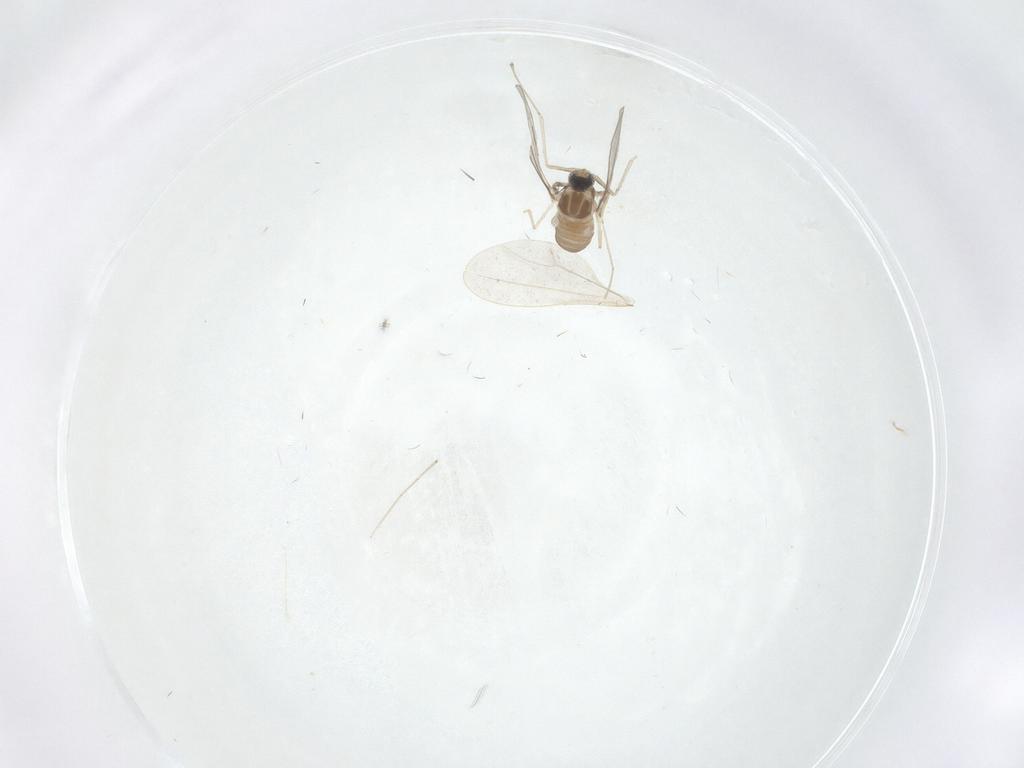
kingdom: Animalia
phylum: Arthropoda
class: Insecta
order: Diptera
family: Cecidomyiidae
